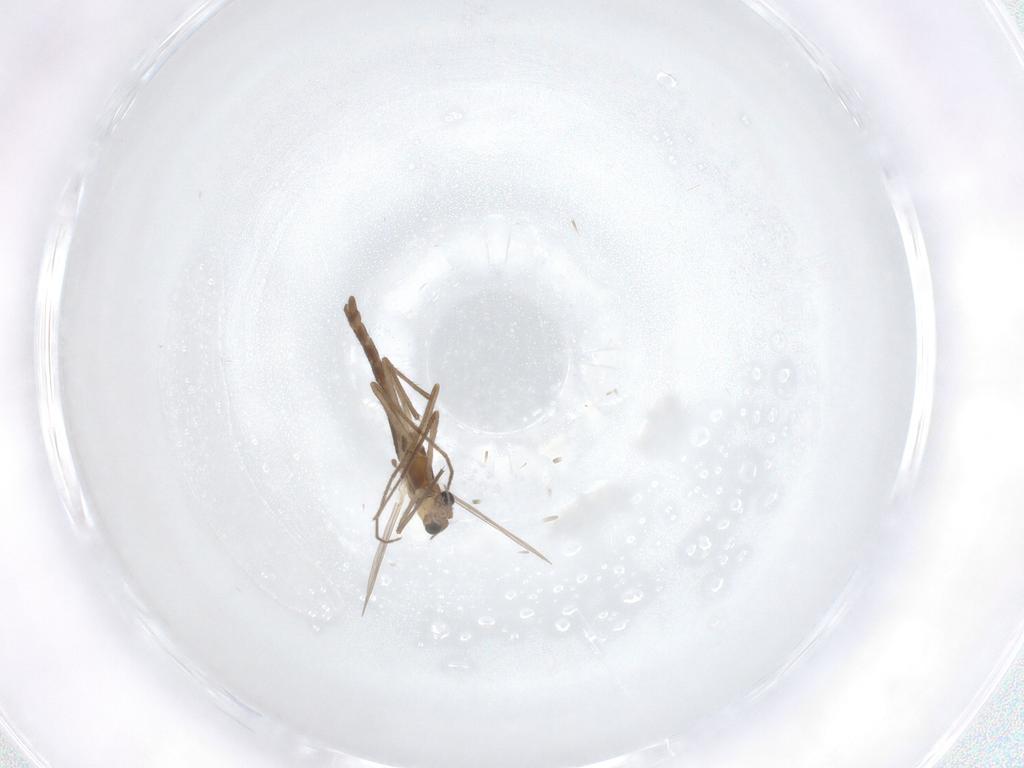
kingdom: Animalia
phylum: Arthropoda
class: Insecta
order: Diptera
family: Chironomidae
